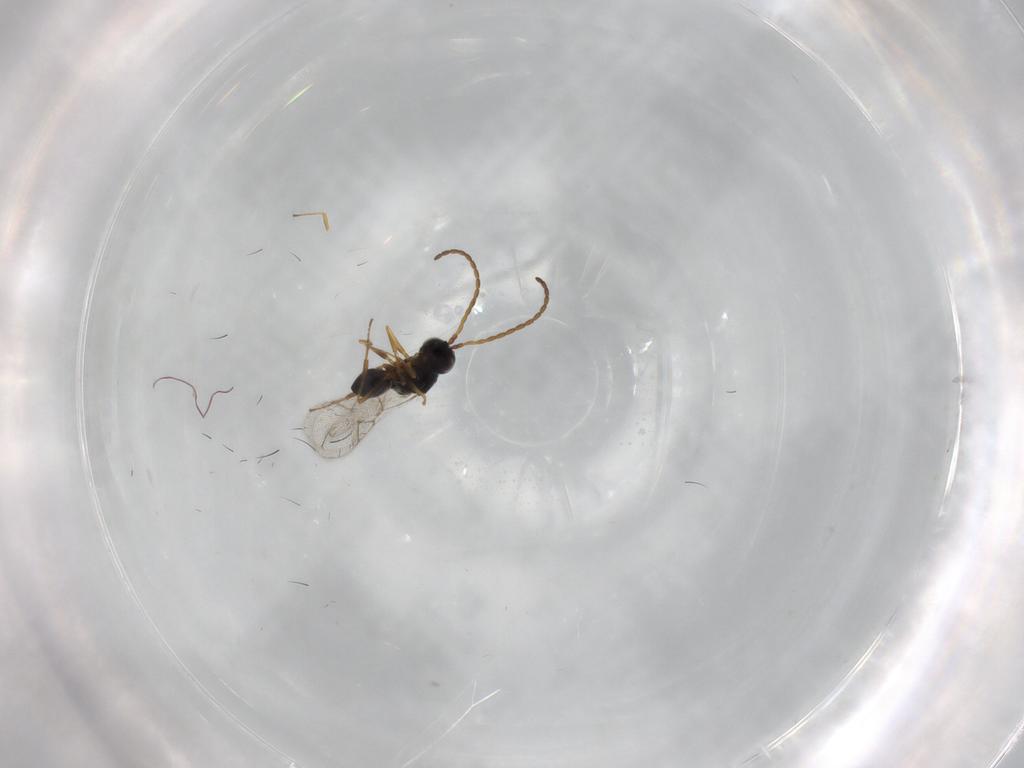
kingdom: Animalia
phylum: Arthropoda
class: Insecta
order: Hymenoptera
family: Figitidae
